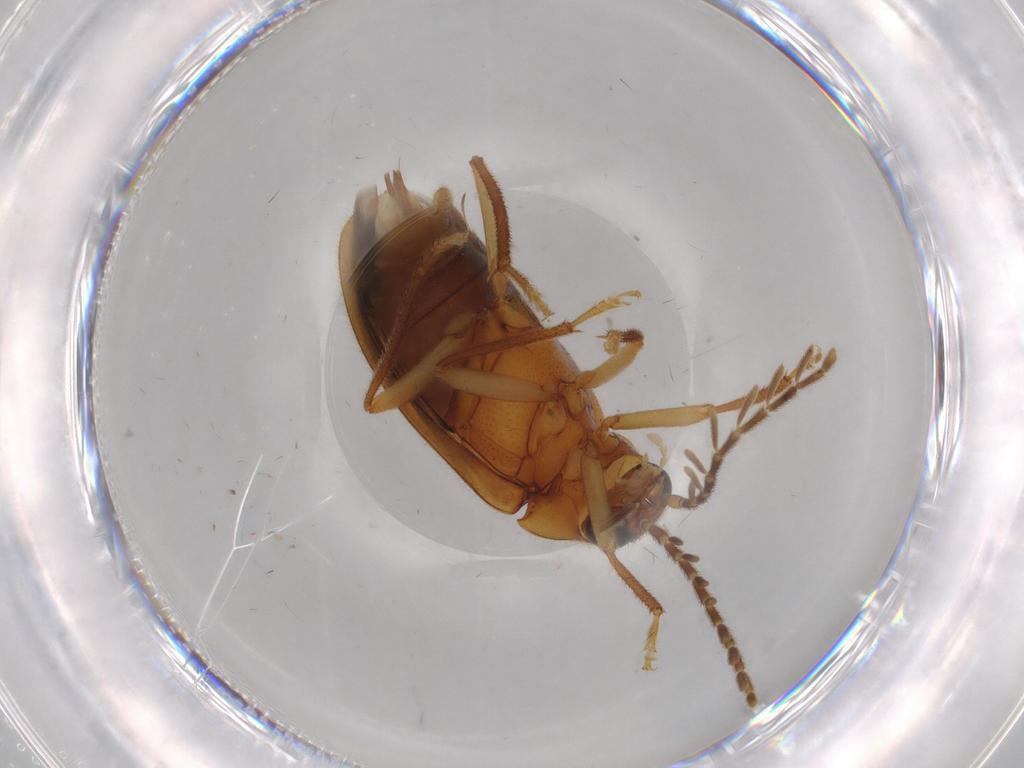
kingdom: Animalia
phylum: Arthropoda
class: Insecta
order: Coleoptera
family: Ptilodactylidae
